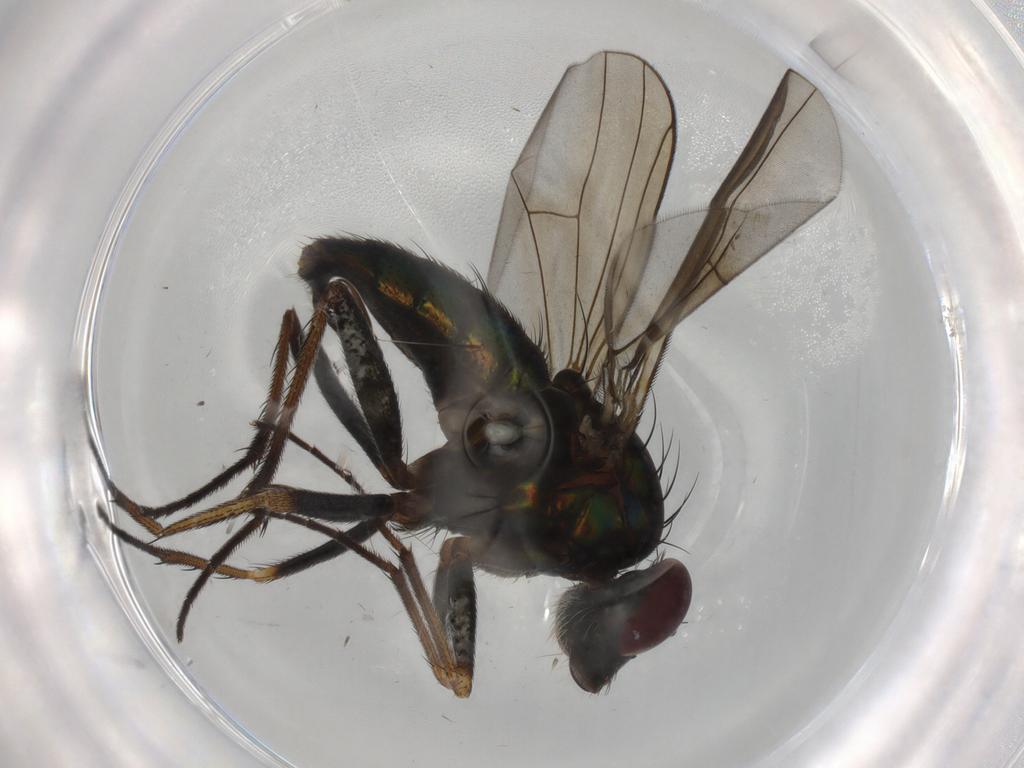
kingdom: Animalia
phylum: Arthropoda
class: Insecta
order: Diptera
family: Dolichopodidae
